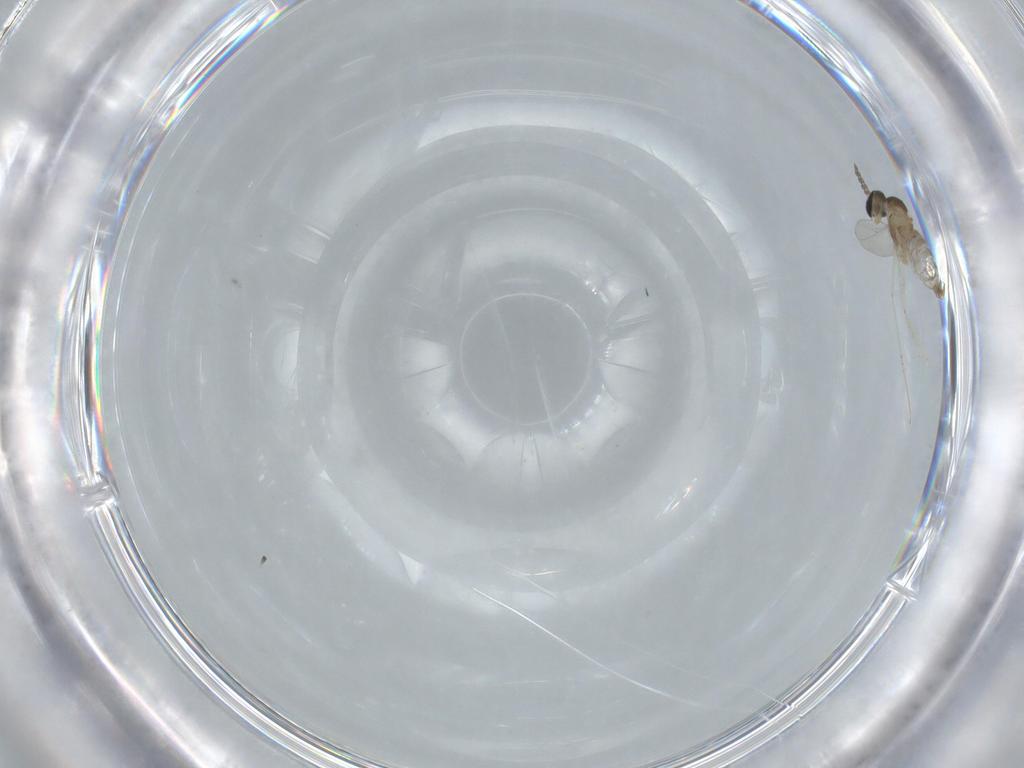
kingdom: Animalia
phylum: Arthropoda
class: Insecta
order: Diptera
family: Cecidomyiidae
